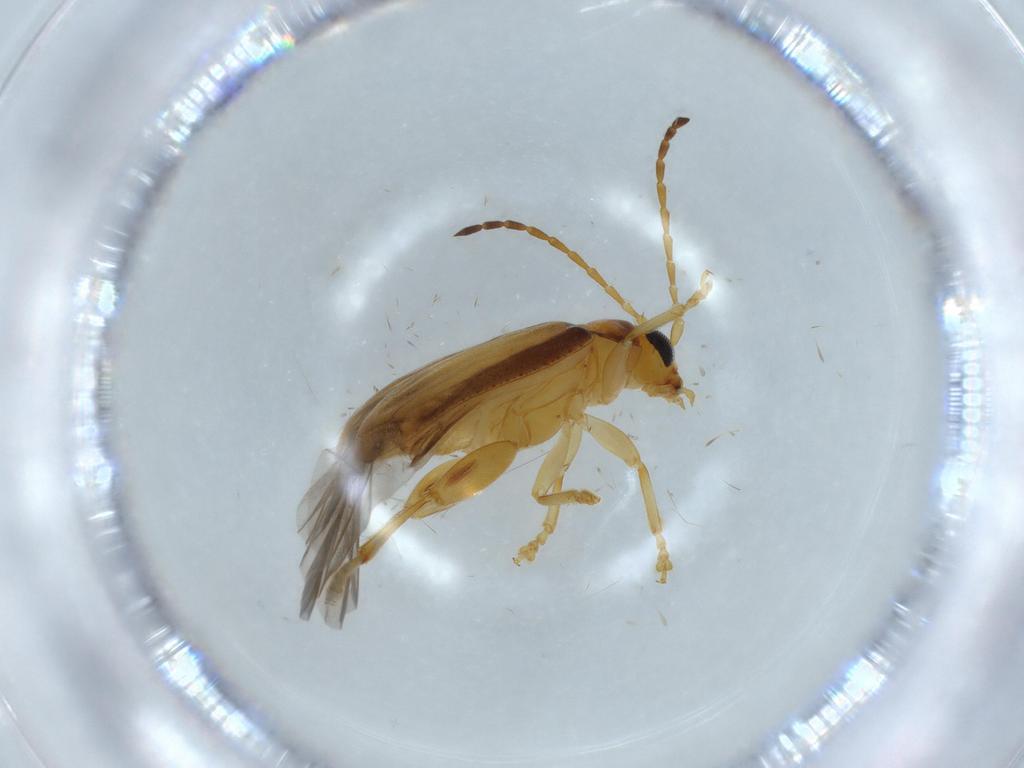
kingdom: Animalia
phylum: Arthropoda
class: Insecta
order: Coleoptera
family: Chrysomelidae
